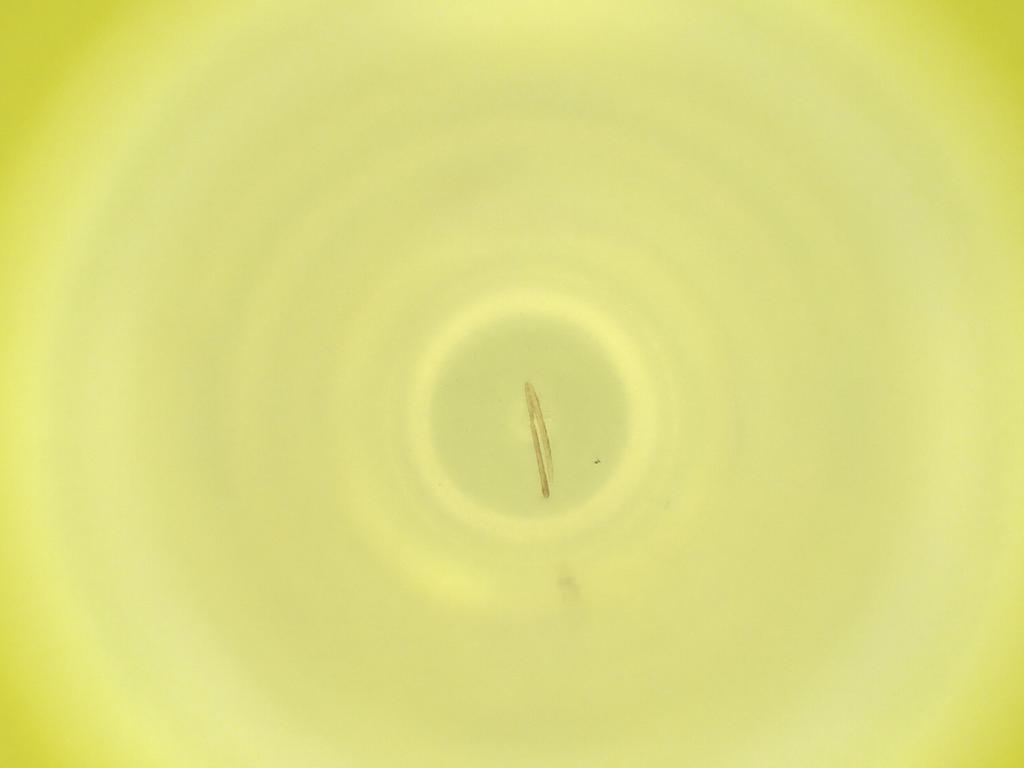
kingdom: Animalia
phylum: Arthropoda
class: Insecta
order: Diptera
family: Cecidomyiidae
